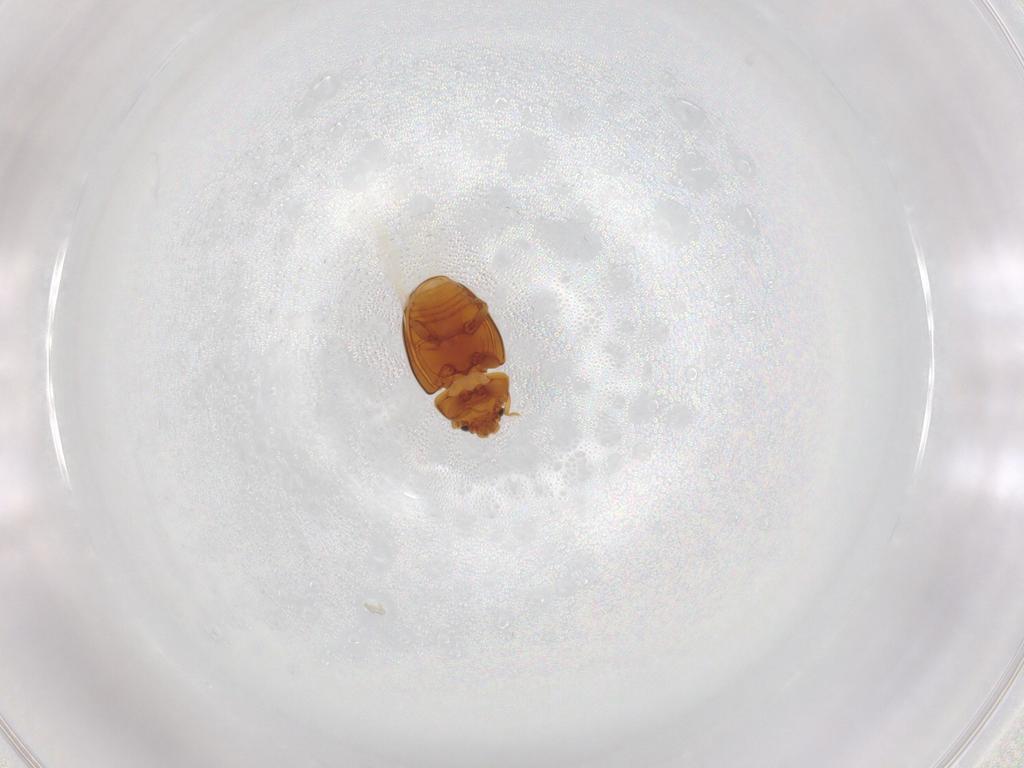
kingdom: Animalia
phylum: Arthropoda
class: Insecta
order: Coleoptera
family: Eupsilobiidae
